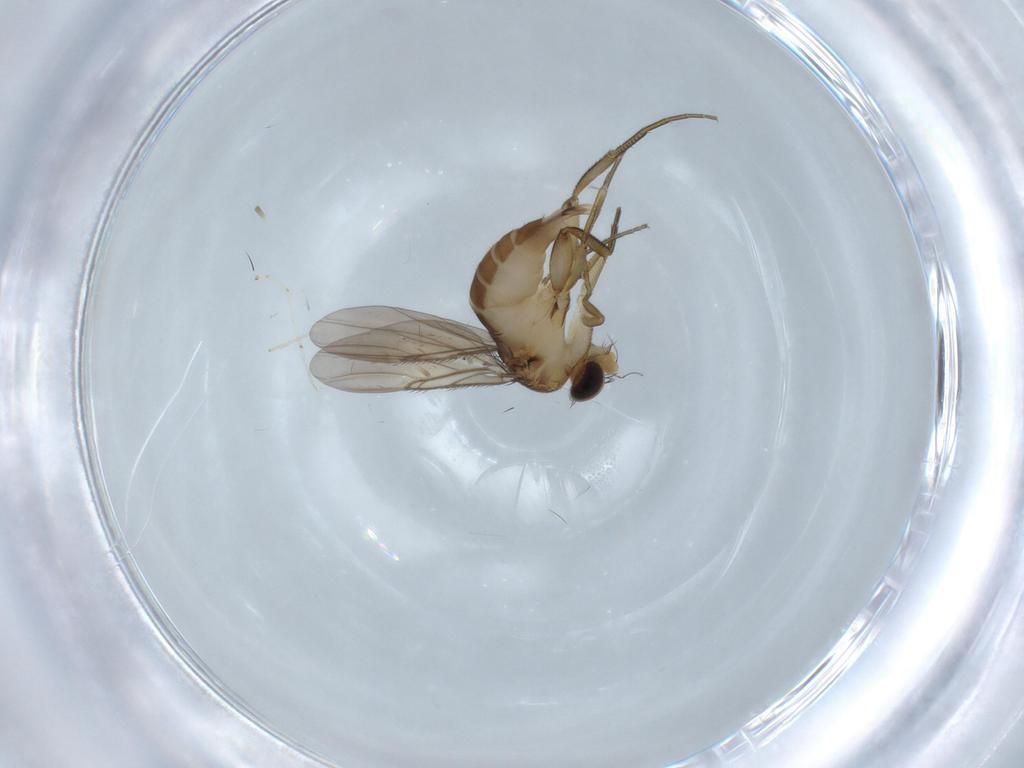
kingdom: Animalia
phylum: Arthropoda
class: Insecta
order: Diptera
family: Phoridae
